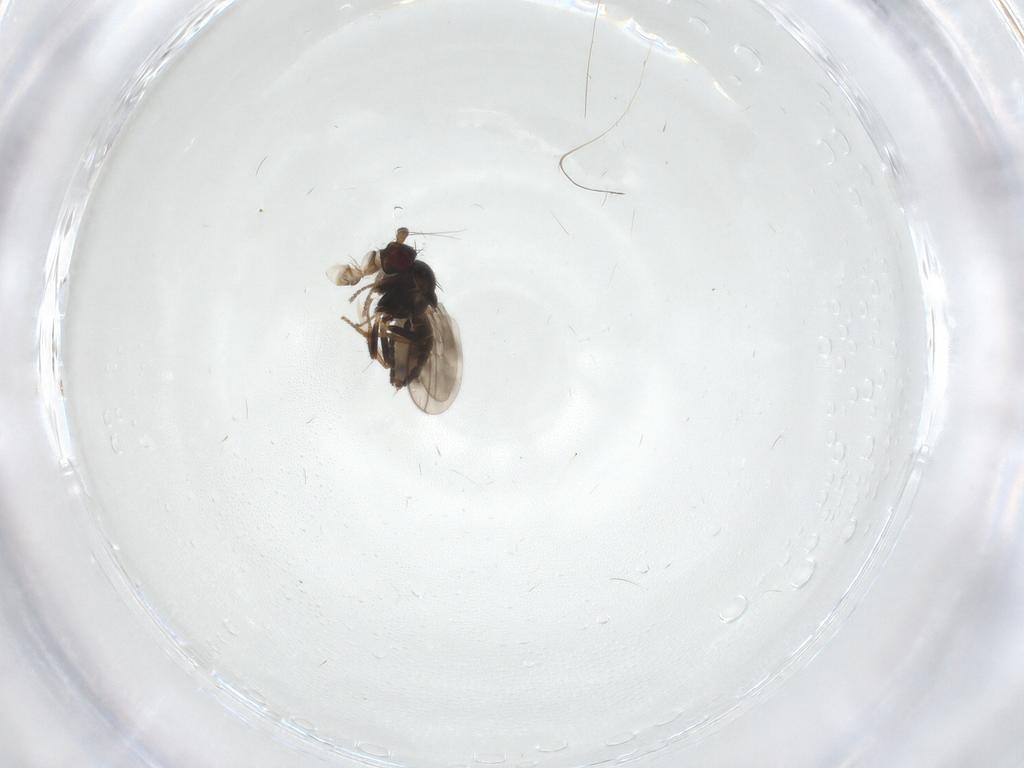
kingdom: Animalia
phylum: Arthropoda
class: Insecta
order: Diptera
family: Sphaeroceridae
